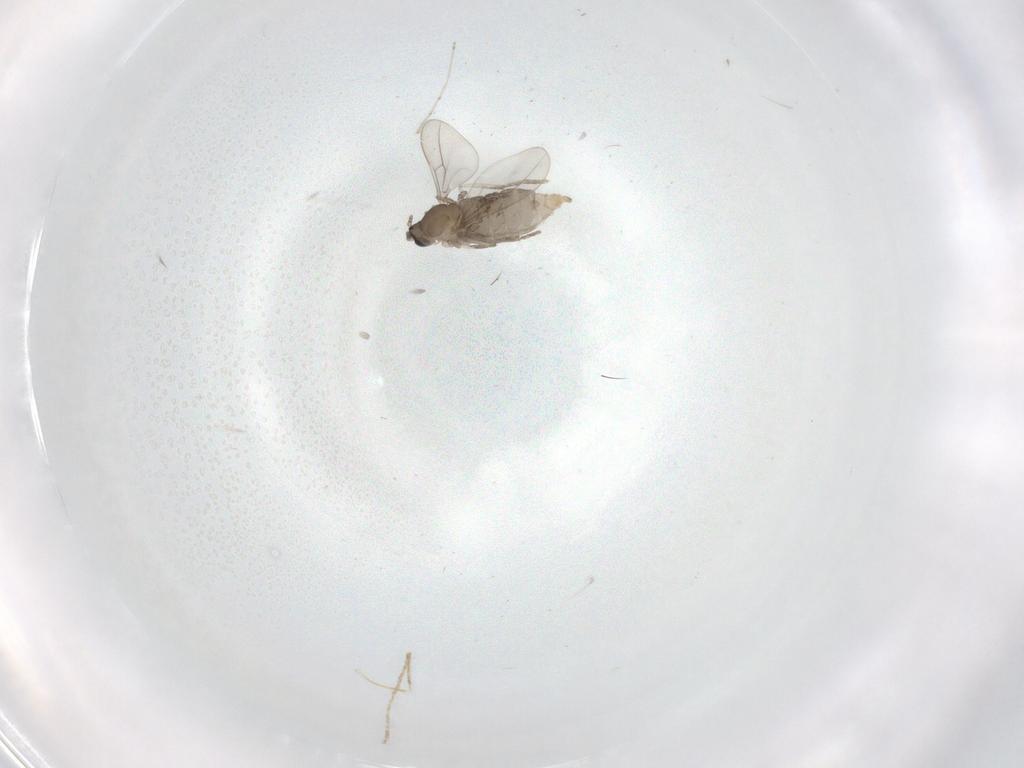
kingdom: Animalia
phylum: Arthropoda
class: Insecta
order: Diptera
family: Cecidomyiidae
